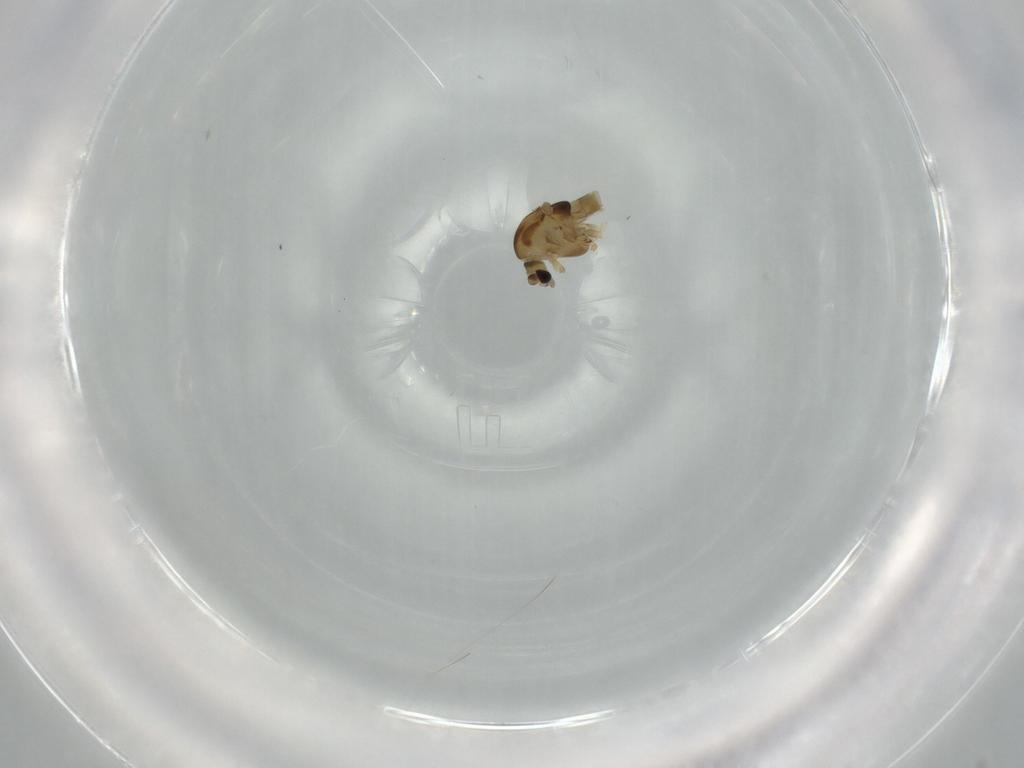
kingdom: Animalia
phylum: Arthropoda
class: Insecta
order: Diptera
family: Chironomidae
